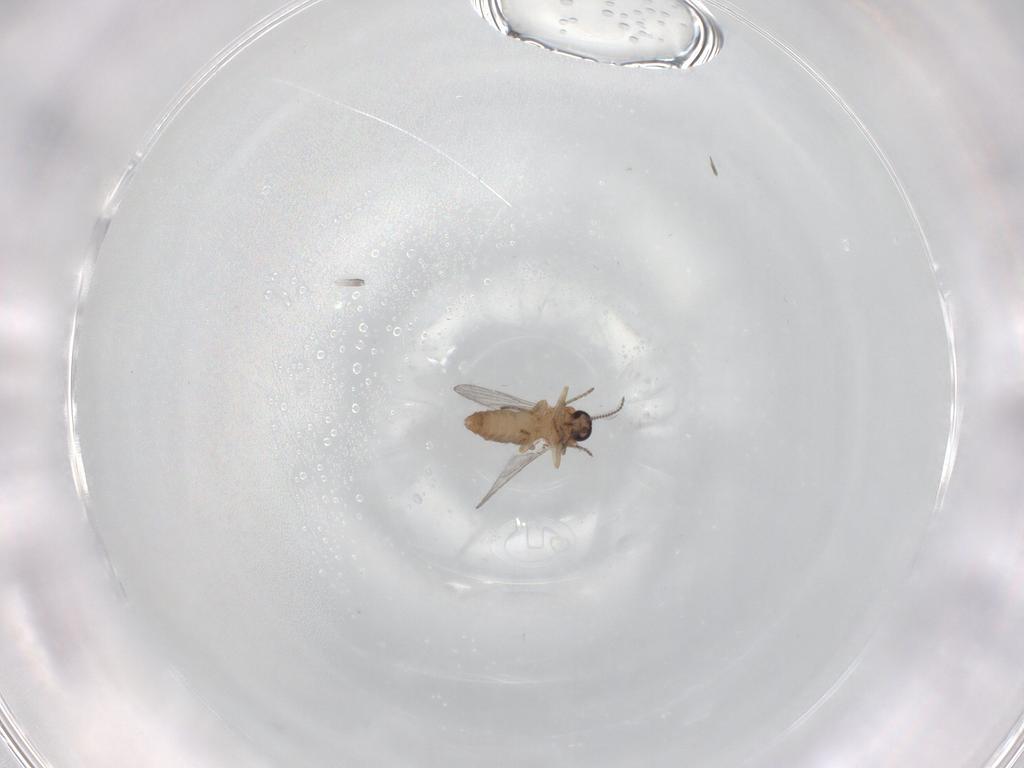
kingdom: Animalia
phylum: Arthropoda
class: Insecta
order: Diptera
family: Ceratopogonidae
